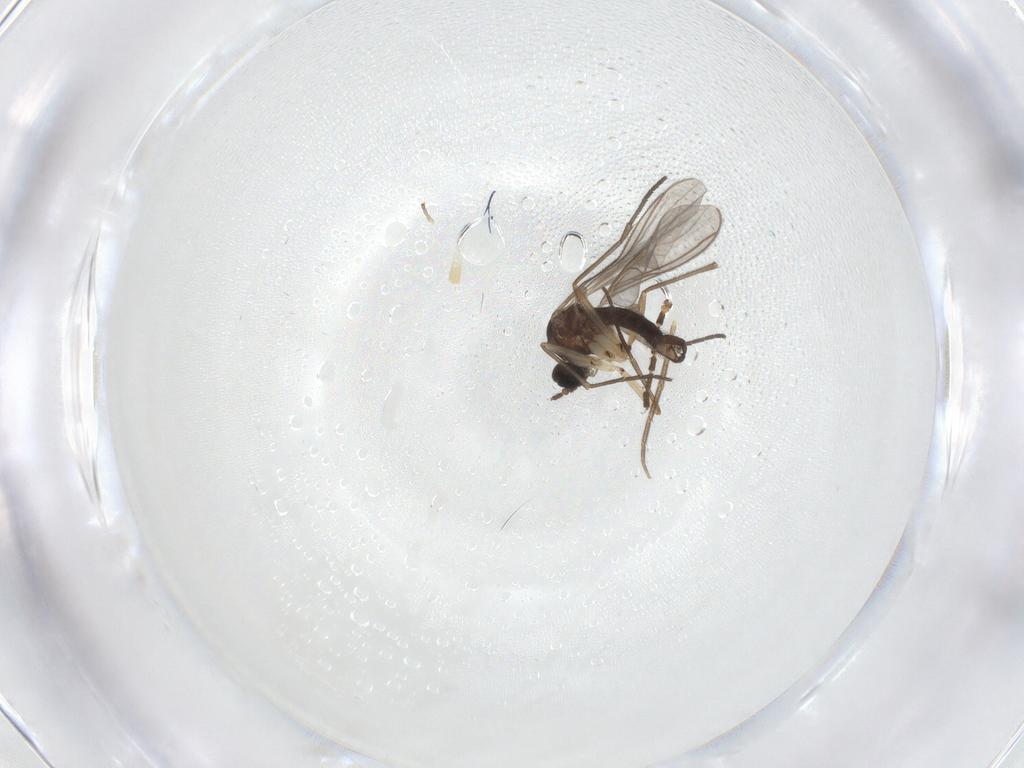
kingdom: Animalia
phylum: Arthropoda
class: Insecta
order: Diptera
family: Sciaridae
